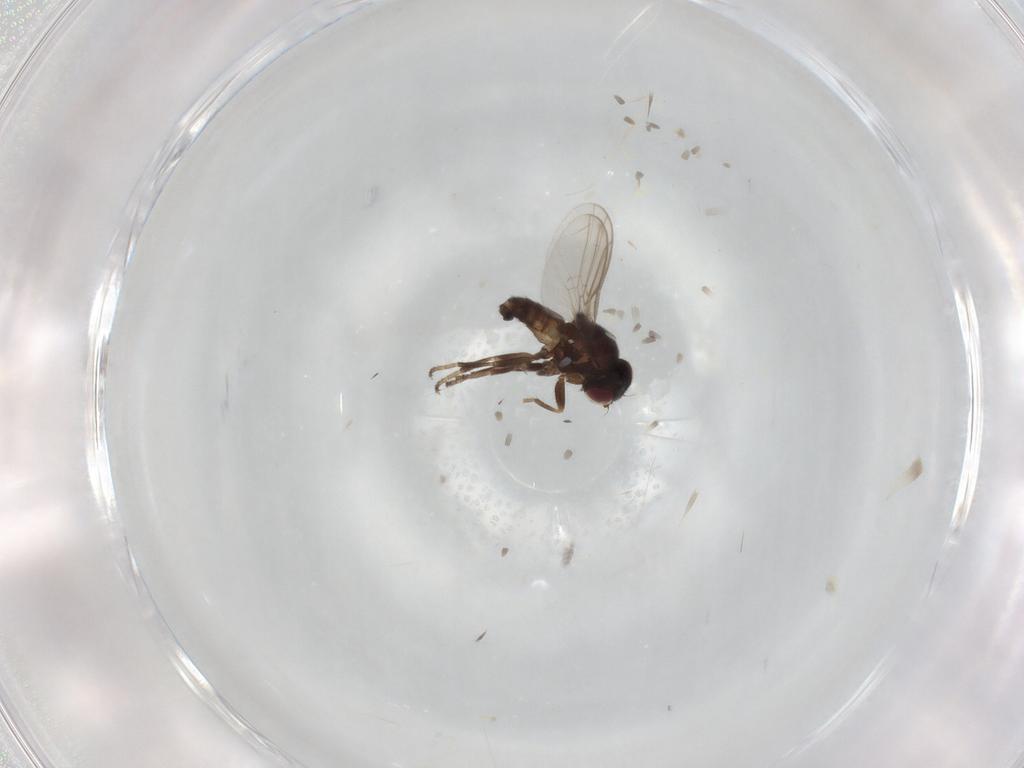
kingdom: Animalia
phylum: Arthropoda
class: Insecta
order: Diptera
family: Chloropidae
